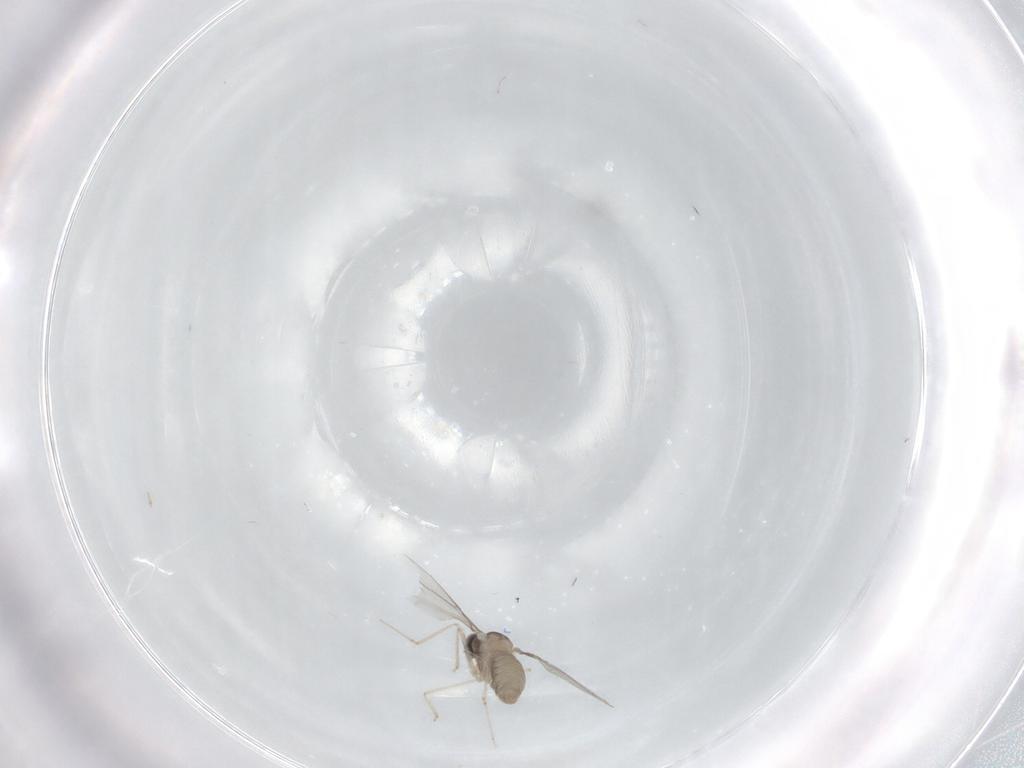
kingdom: Animalia
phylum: Arthropoda
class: Insecta
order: Diptera
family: Cecidomyiidae
